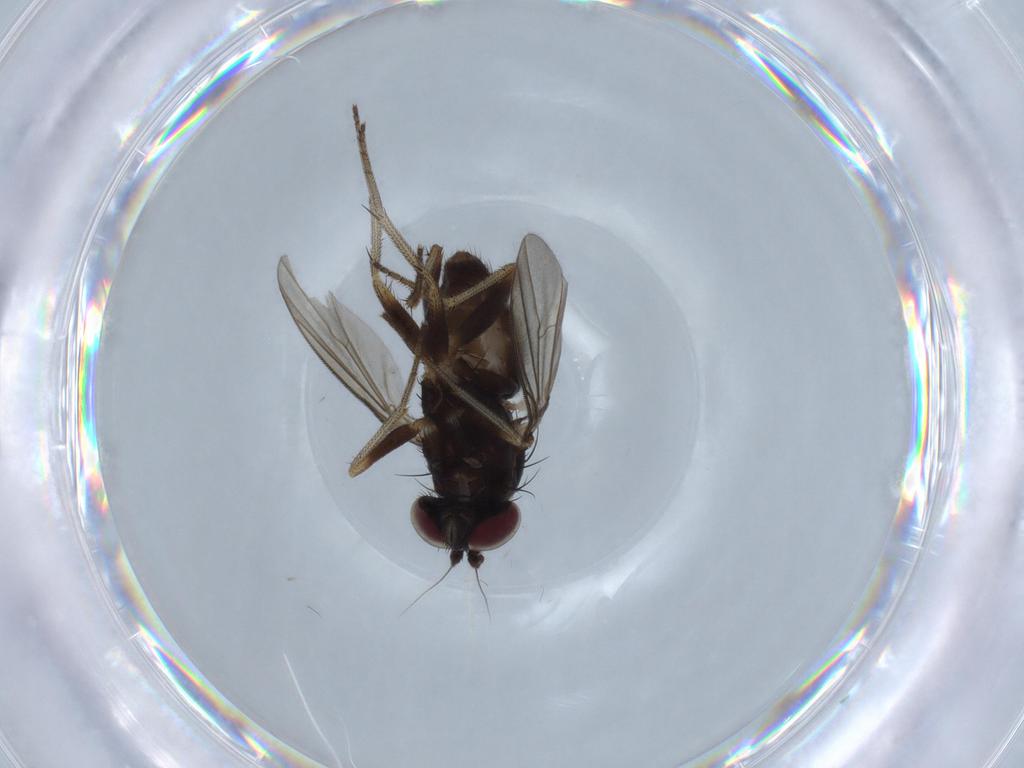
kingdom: Animalia
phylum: Arthropoda
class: Insecta
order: Diptera
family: Dolichopodidae
